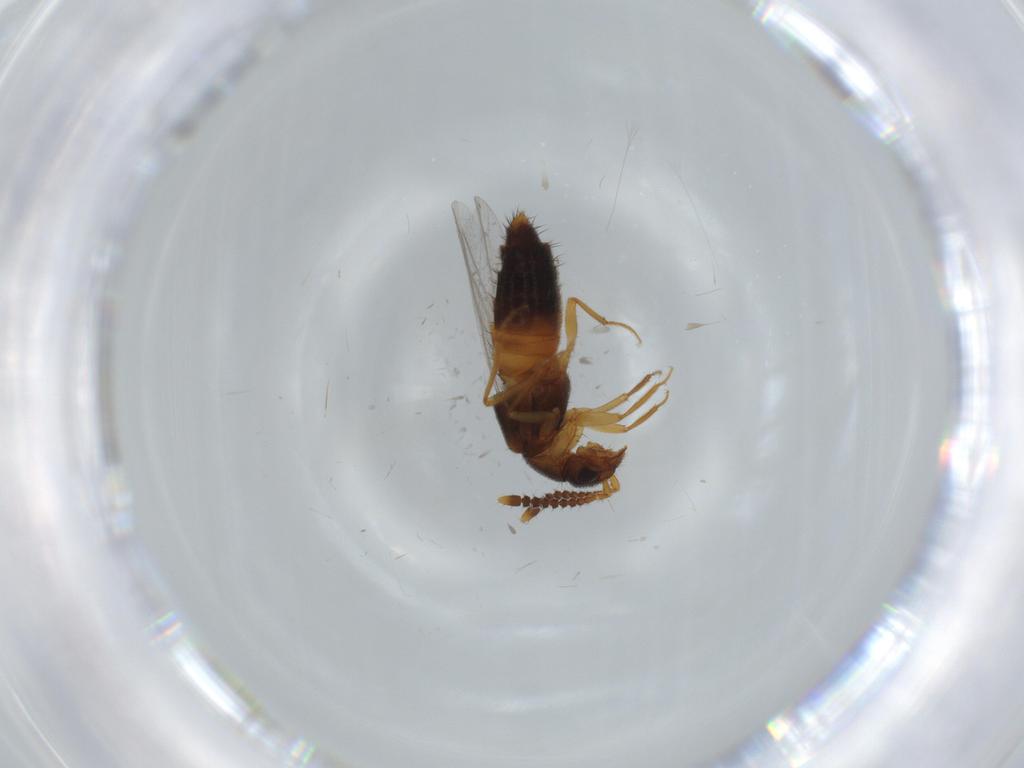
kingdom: Animalia
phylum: Arthropoda
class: Insecta
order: Coleoptera
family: Staphylinidae
